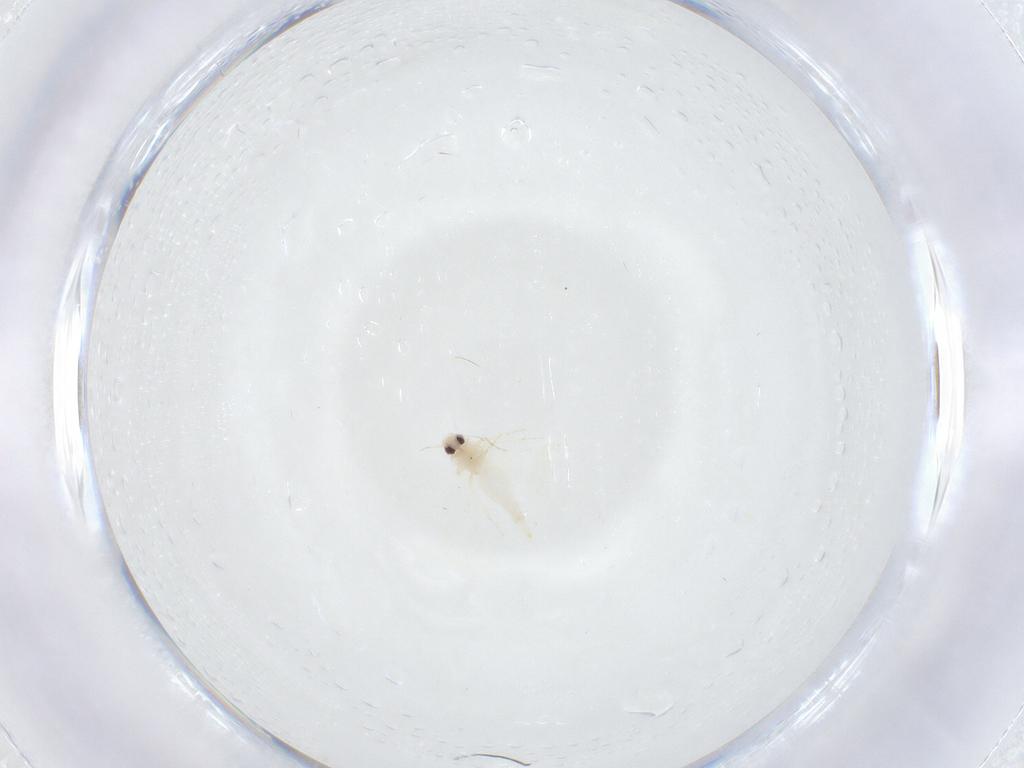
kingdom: Animalia
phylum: Arthropoda
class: Insecta
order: Hemiptera
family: Aleyrodidae
